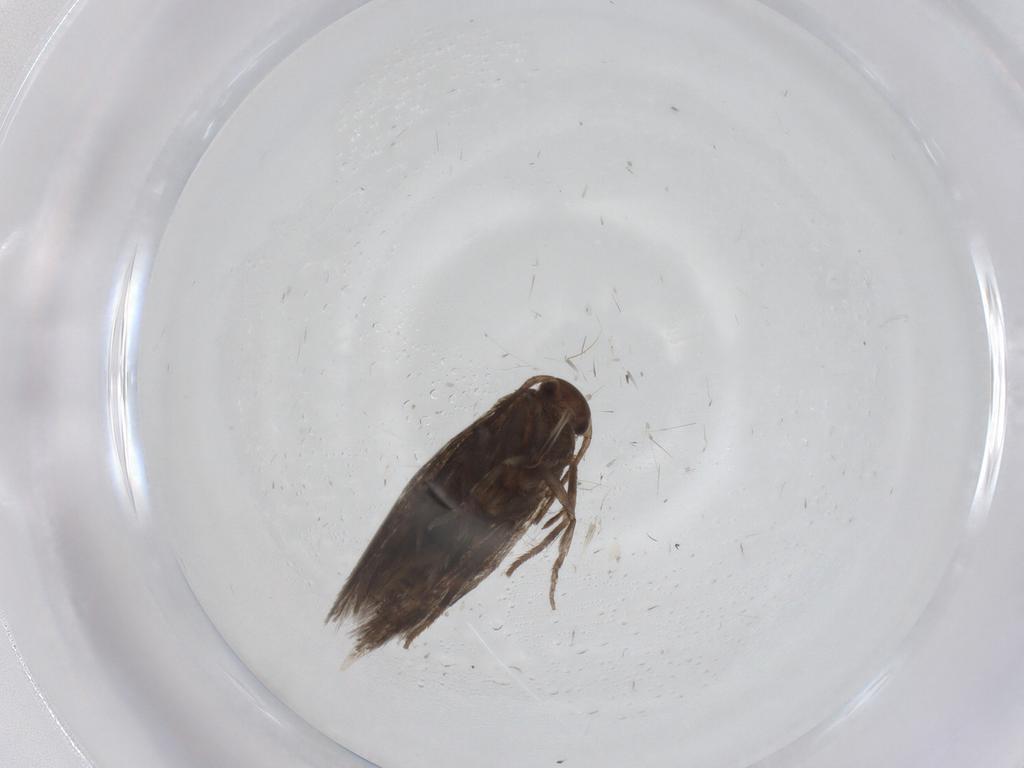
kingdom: Animalia
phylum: Arthropoda
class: Insecta
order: Lepidoptera
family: Elachistidae
